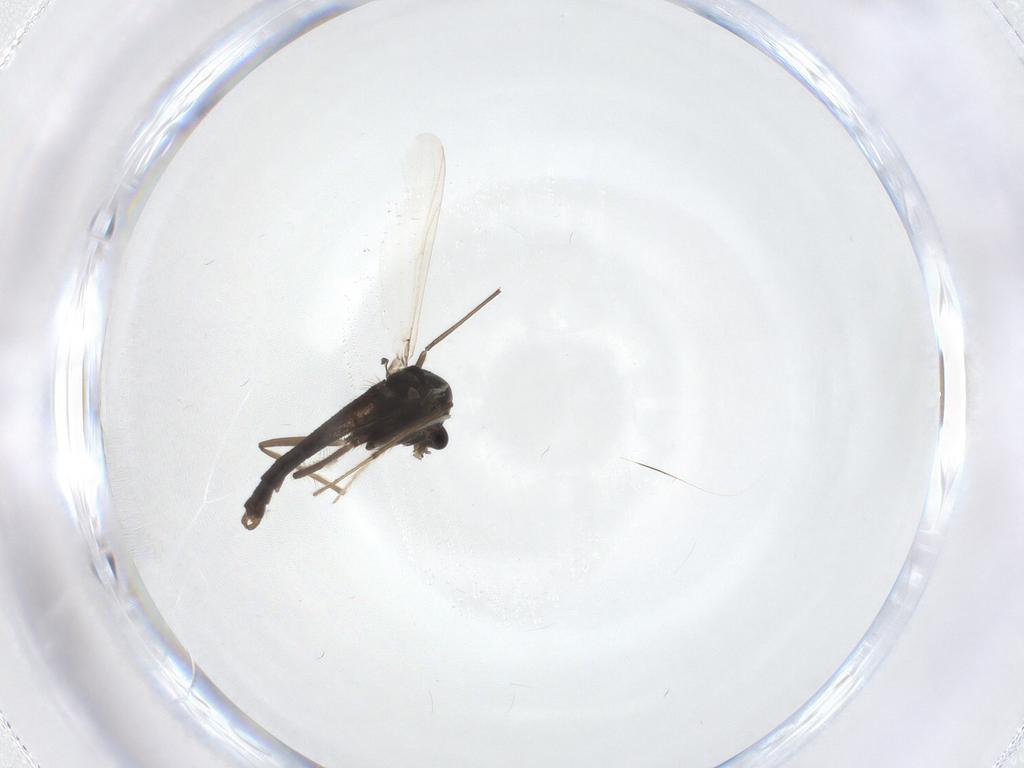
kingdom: Animalia
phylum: Arthropoda
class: Insecta
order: Diptera
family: Chironomidae
